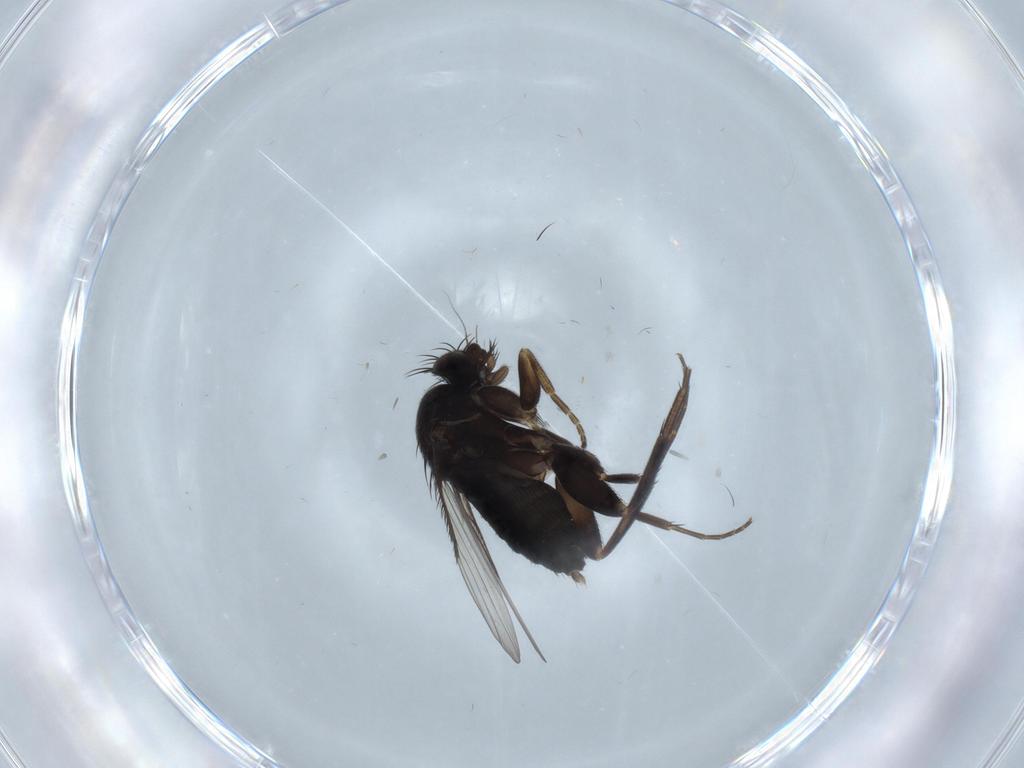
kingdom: Animalia
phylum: Arthropoda
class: Insecta
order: Diptera
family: Phoridae
